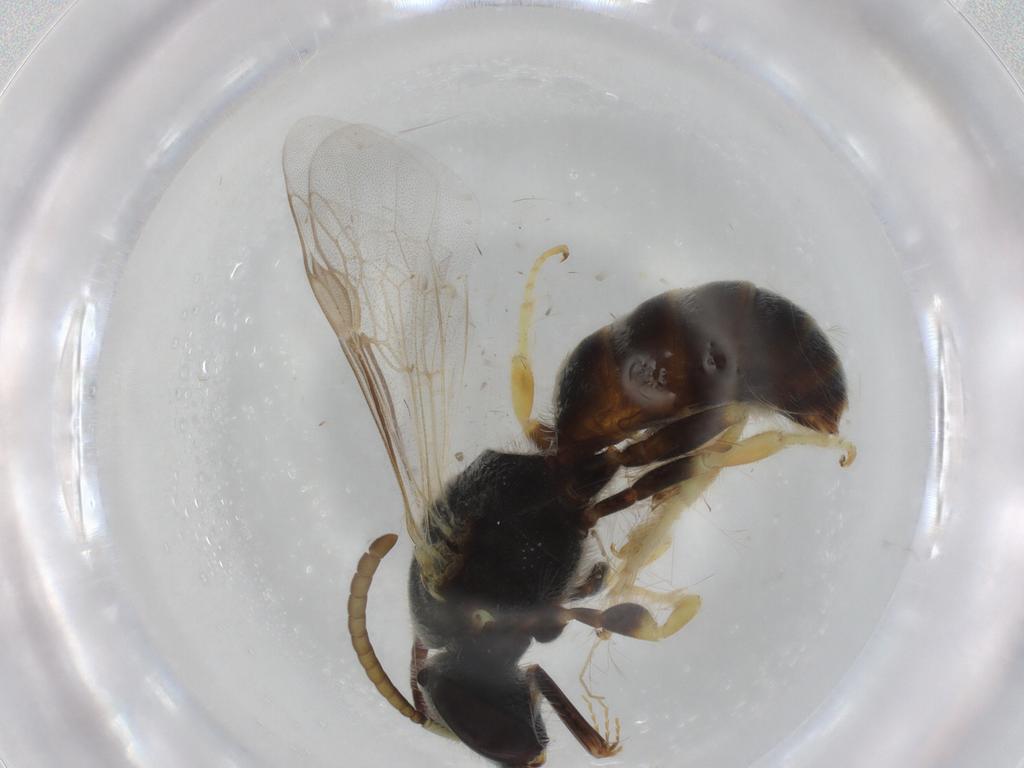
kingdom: Animalia
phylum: Arthropoda
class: Insecta
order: Hymenoptera
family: Halictidae
